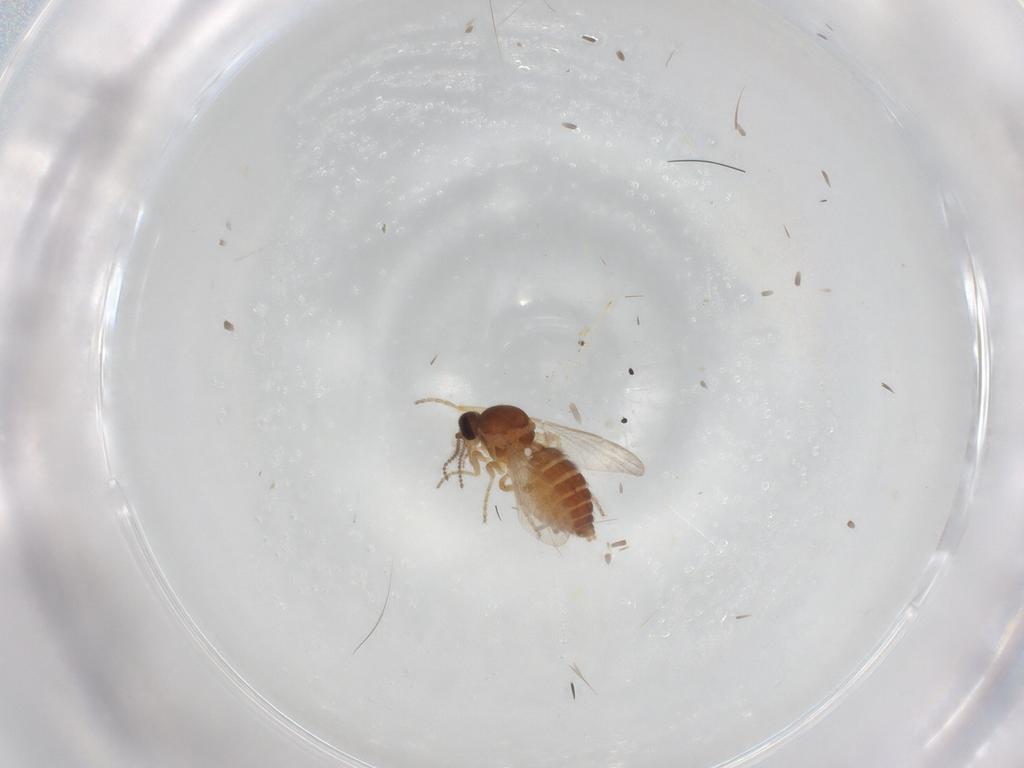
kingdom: Animalia
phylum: Arthropoda
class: Insecta
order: Diptera
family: Ceratopogonidae
